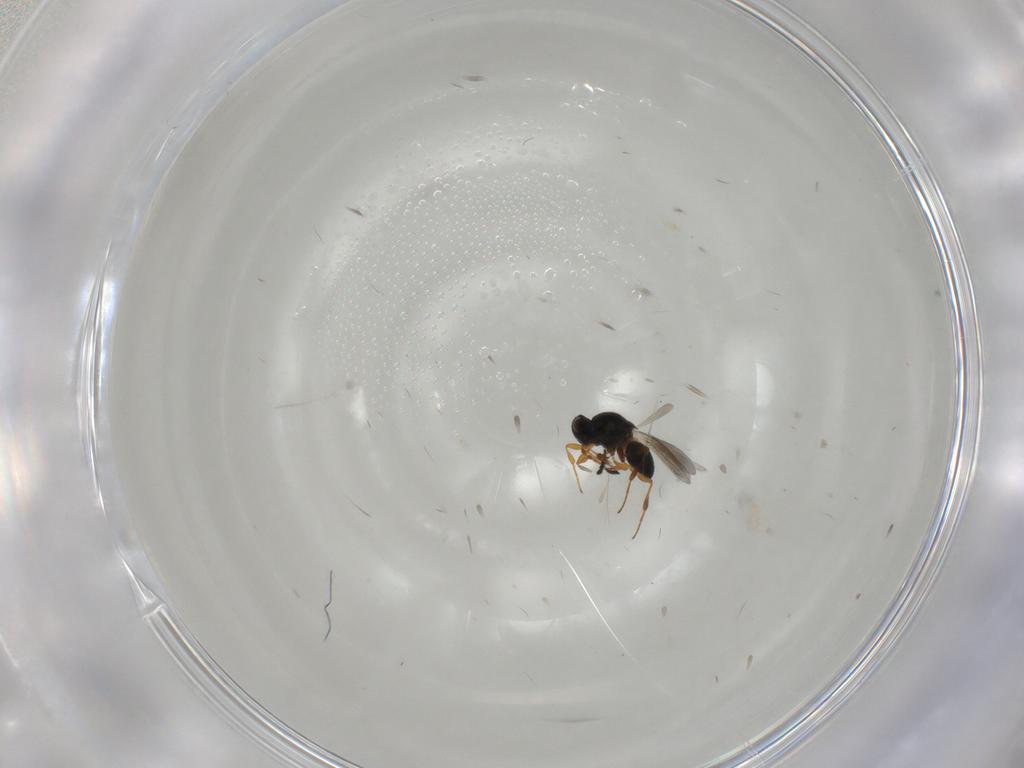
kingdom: Animalia
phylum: Arthropoda
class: Insecta
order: Hymenoptera
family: Platygastridae
